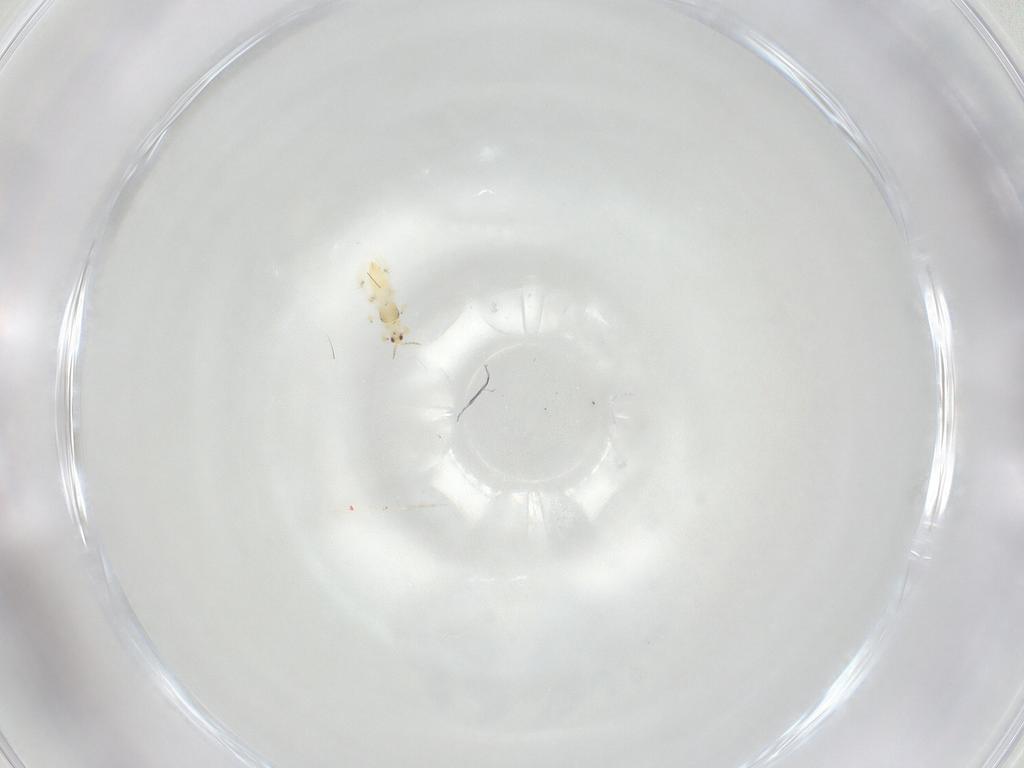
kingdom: Animalia
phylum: Arthropoda
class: Insecta
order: Thysanoptera
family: Thripidae
